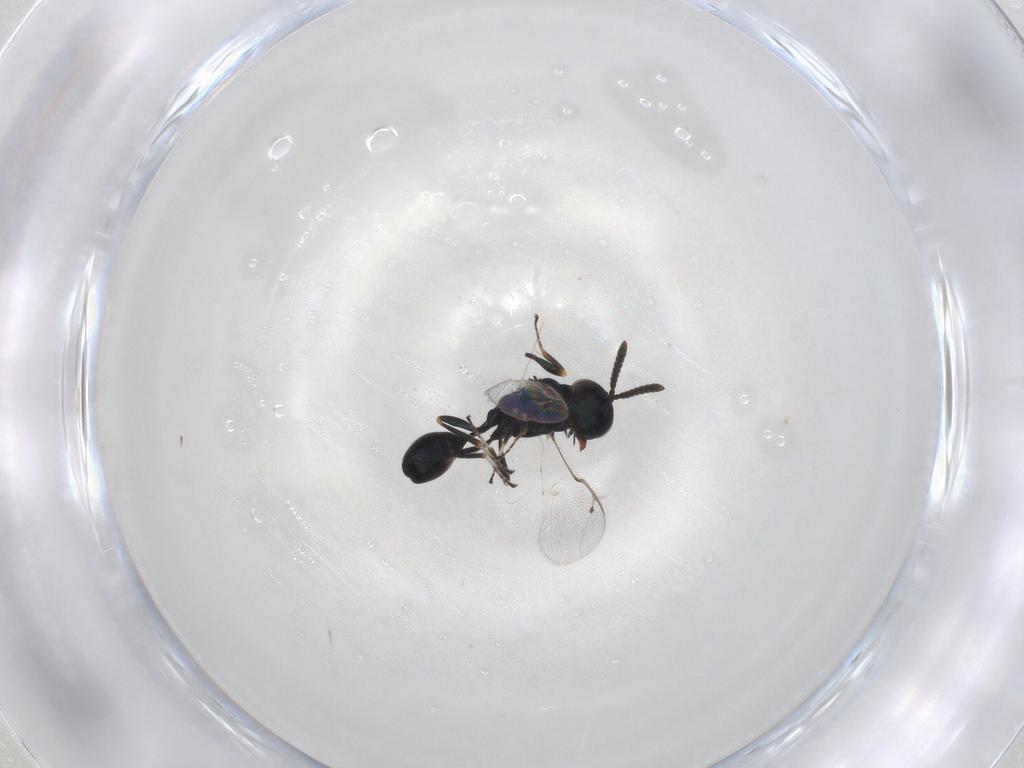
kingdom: Animalia
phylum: Arthropoda
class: Insecta
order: Hymenoptera
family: Pteromalidae
